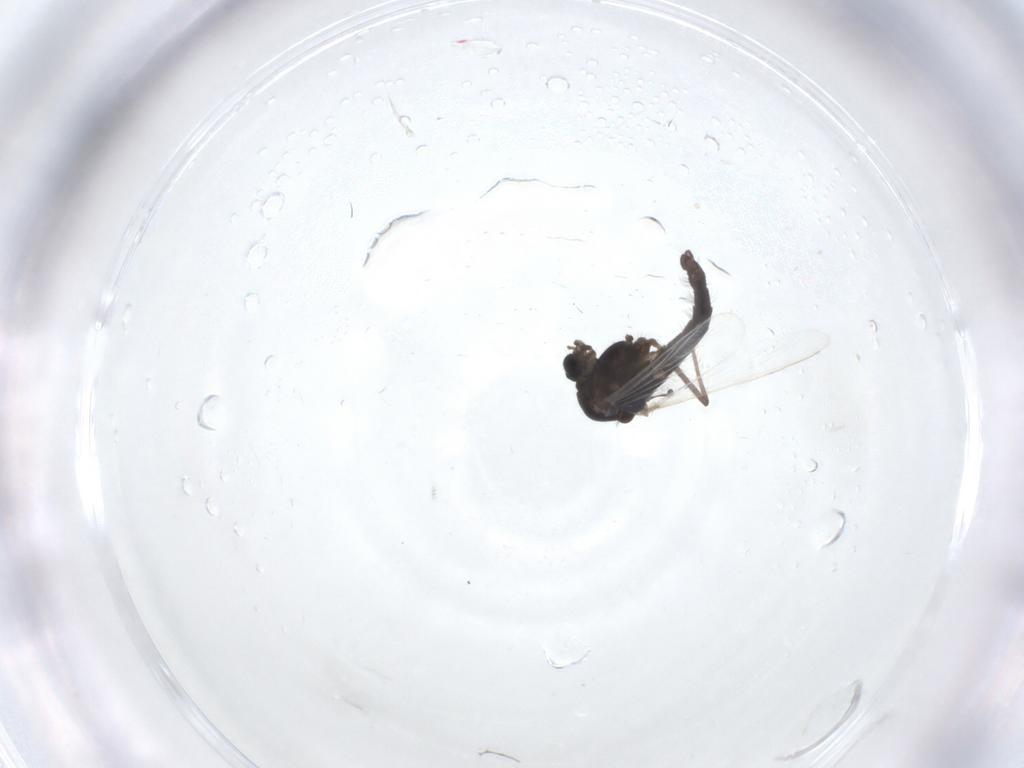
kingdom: Animalia
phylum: Arthropoda
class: Insecta
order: Diptera
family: Chironomidae
